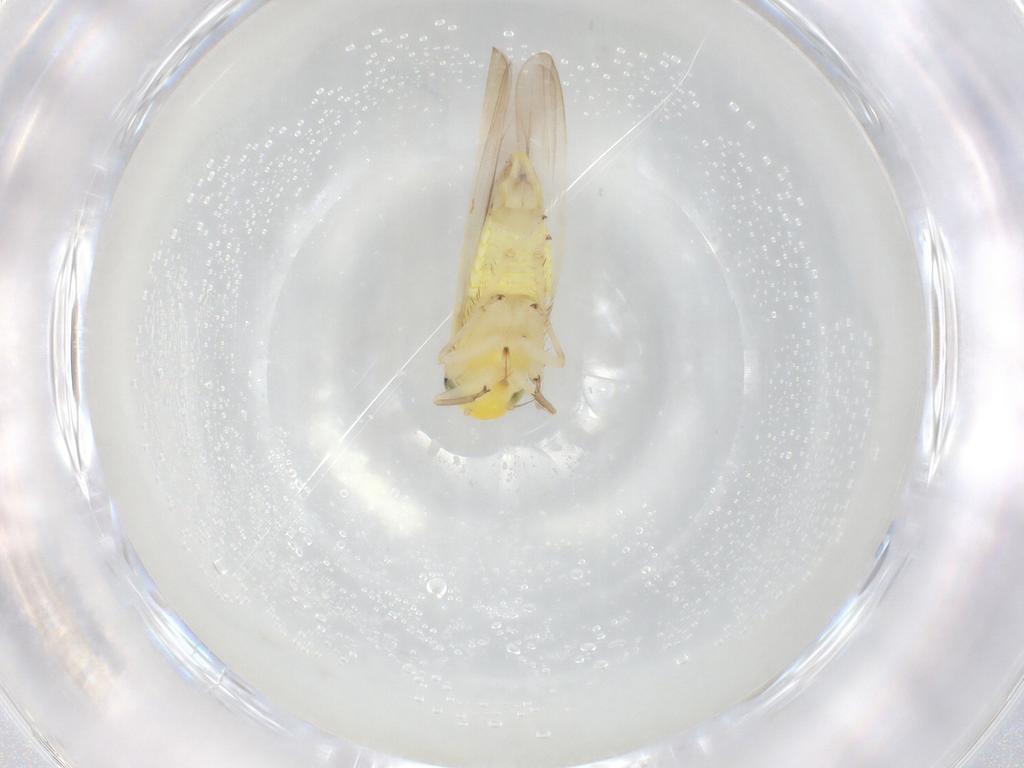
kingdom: Animalia
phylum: Arthropoda
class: Insecta
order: Hemiptera
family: Cicadellidae
